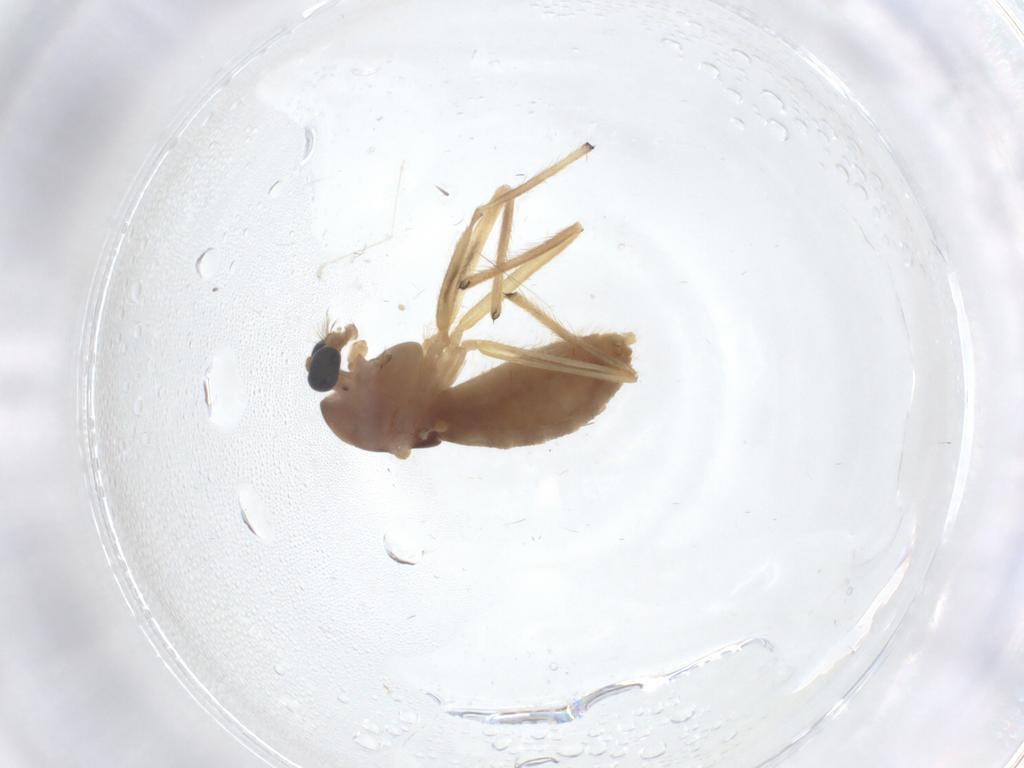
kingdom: Animalia
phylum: Arthropoda
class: Insecta
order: Diptera
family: Chironomidae
